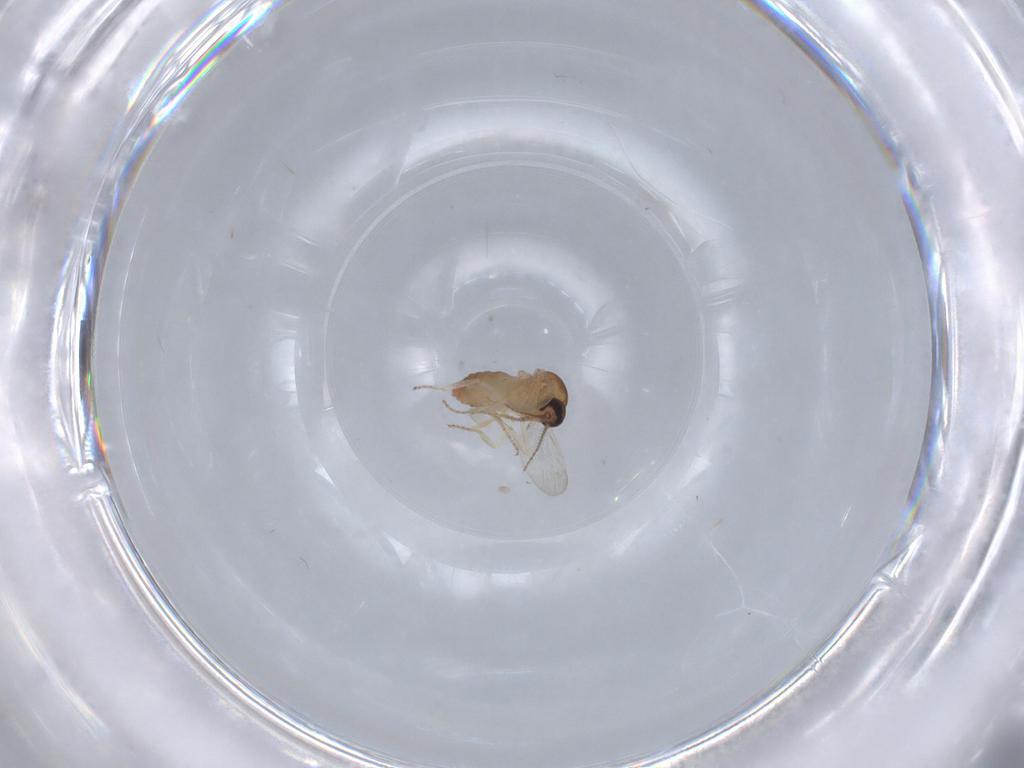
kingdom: Animalia
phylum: Arthropoda
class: Insecta
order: Diptera
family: Ceratopogonidae
